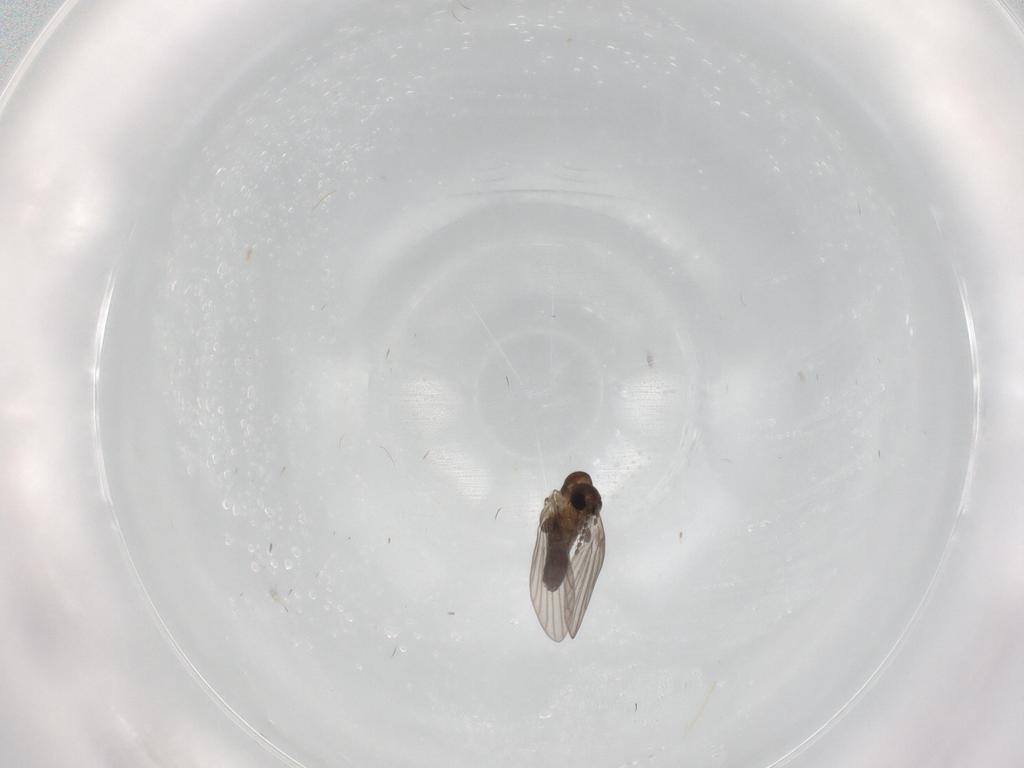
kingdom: Animalia
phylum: Arthropoda
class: Insecta
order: Diptera
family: Psychodidae
